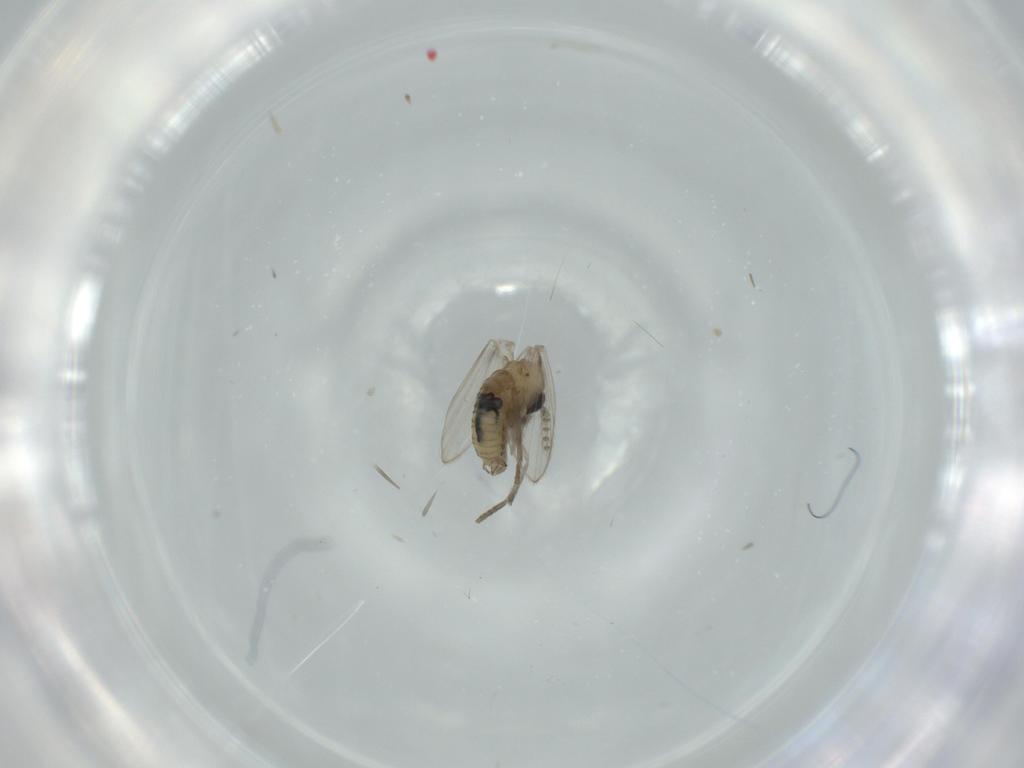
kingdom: Animalia
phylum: Arthropoda
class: Insecta
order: Diptera
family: Psychodidae
